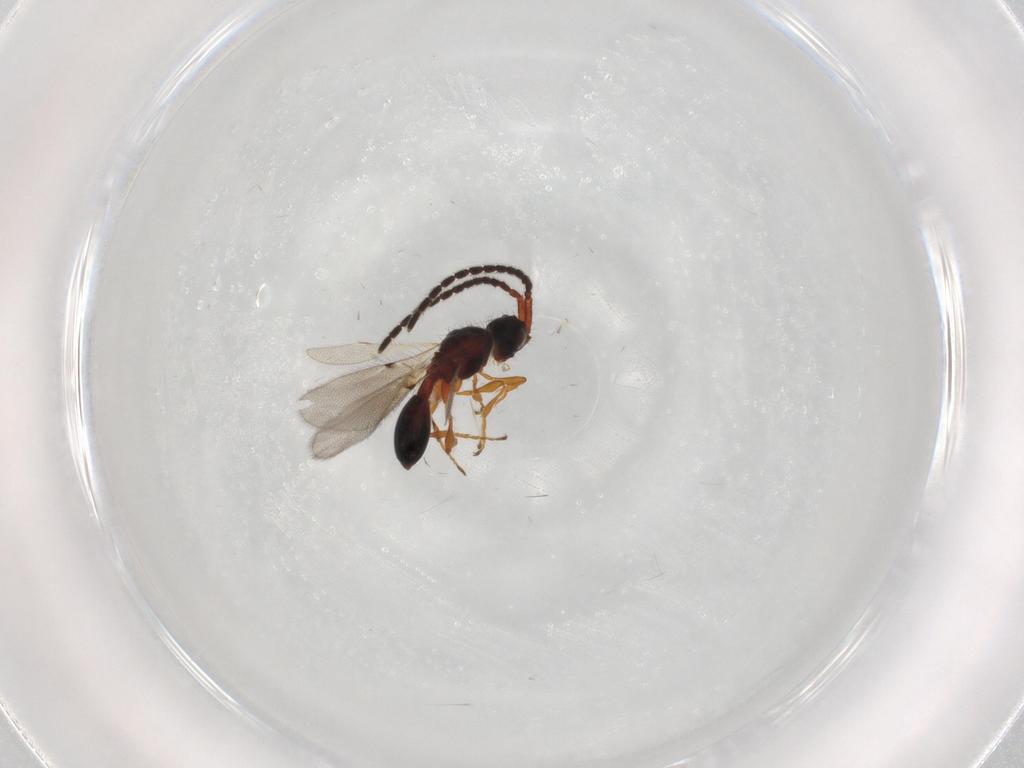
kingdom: Animalia
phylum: Arthropoda
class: Insecta
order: Hymenoptera
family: Diapriidae
